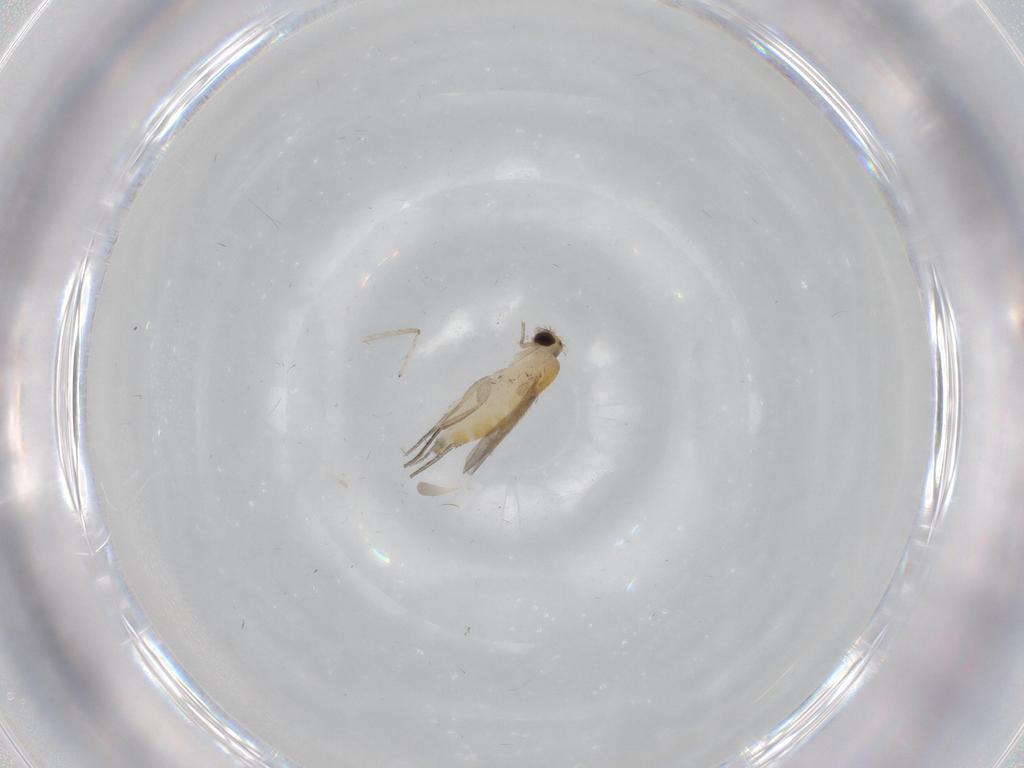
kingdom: Animalia
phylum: Arthropoda
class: Insecta
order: Diptera
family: Chironomidae
